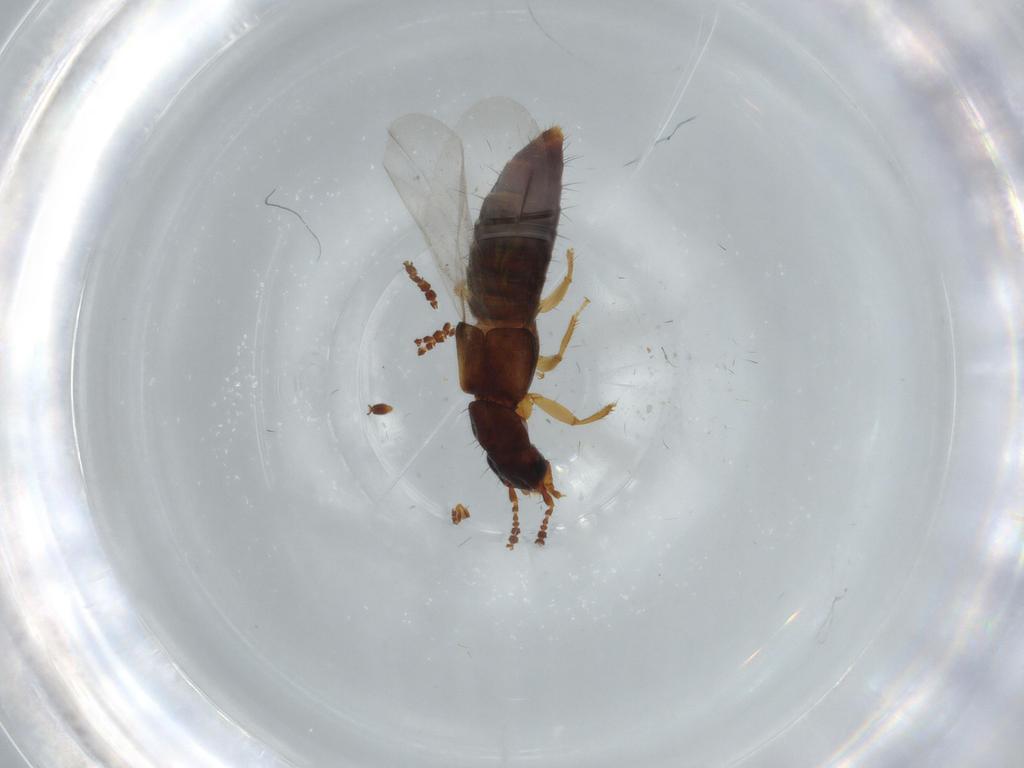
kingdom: Animalia
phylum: Arthropoda
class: Insecta
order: Coleoptera
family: Staphylinidae
